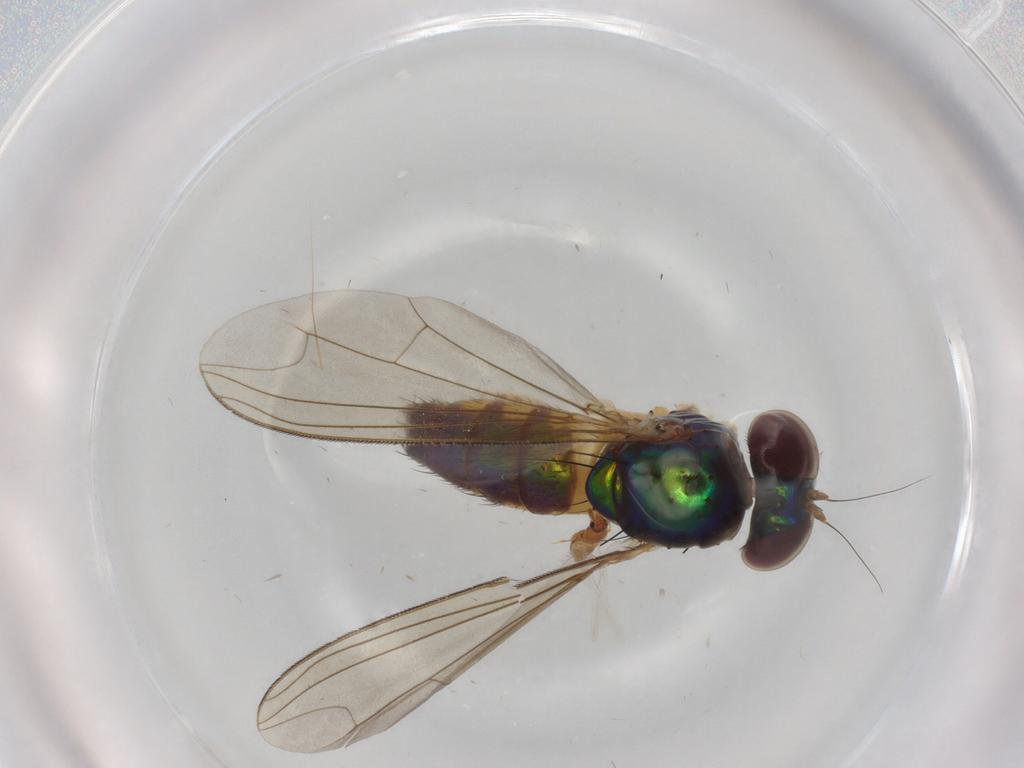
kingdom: Animalia
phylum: Arthropoda
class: Insecta
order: Diptera
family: Dolichopodidae
